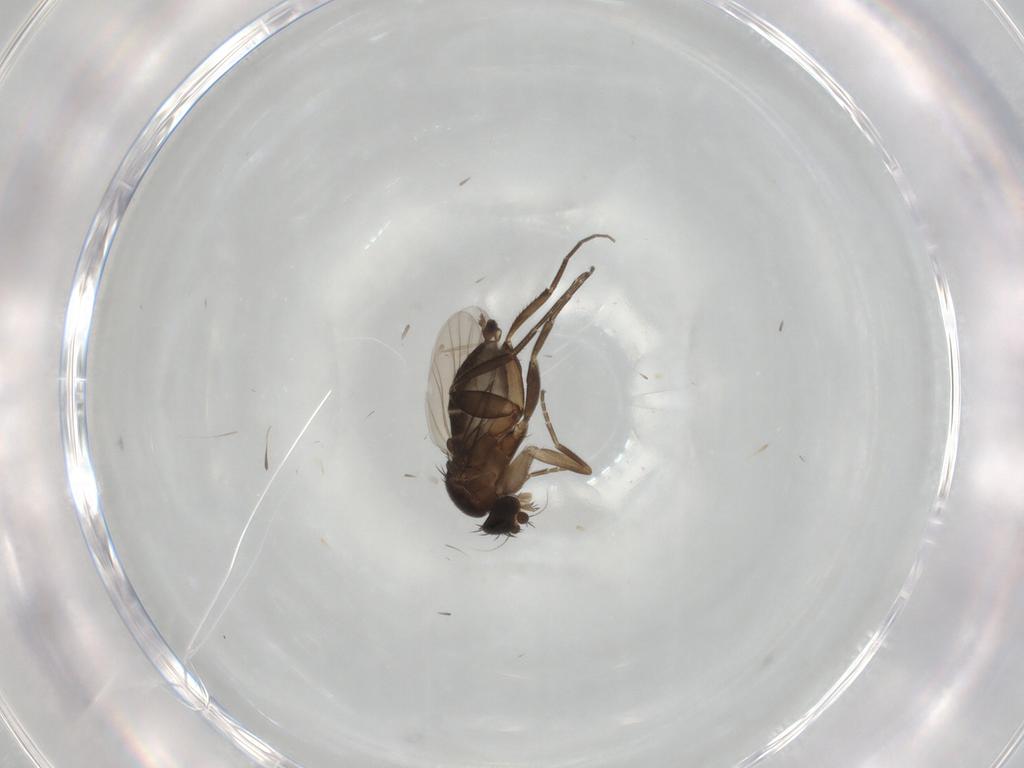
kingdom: Animalia
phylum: Arthropoda
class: Insecta
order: Diptera
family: Phoridae
